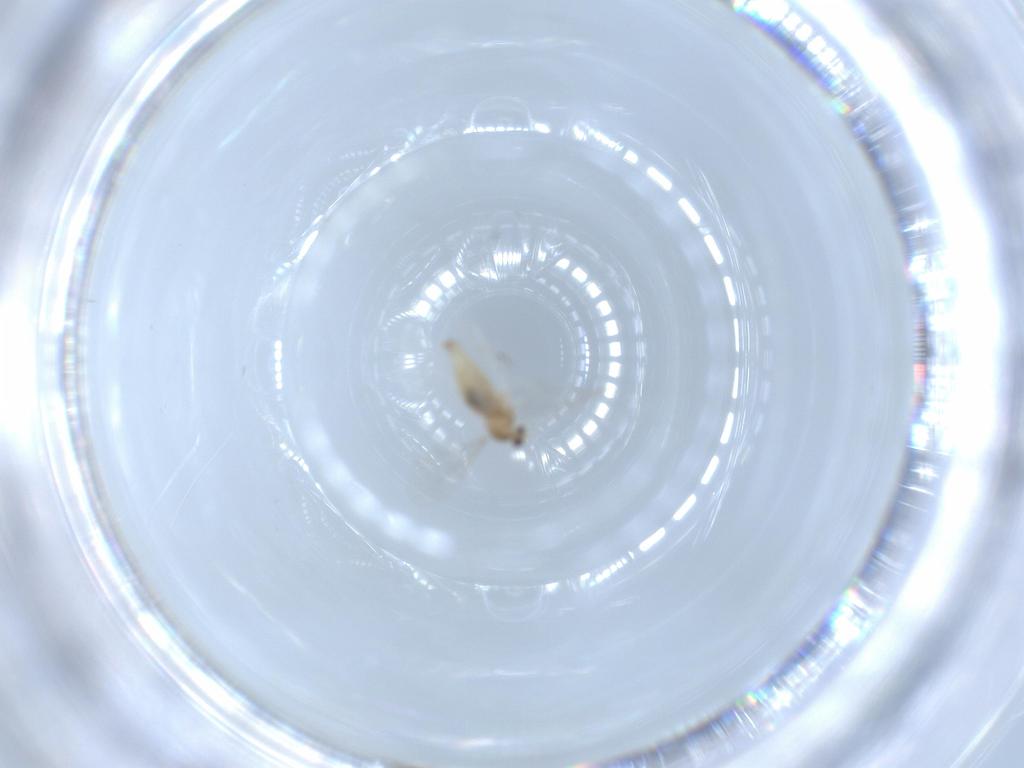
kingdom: Animalia
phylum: Arthropoda
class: Insecta
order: Diptera
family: Cecidomyiidae
